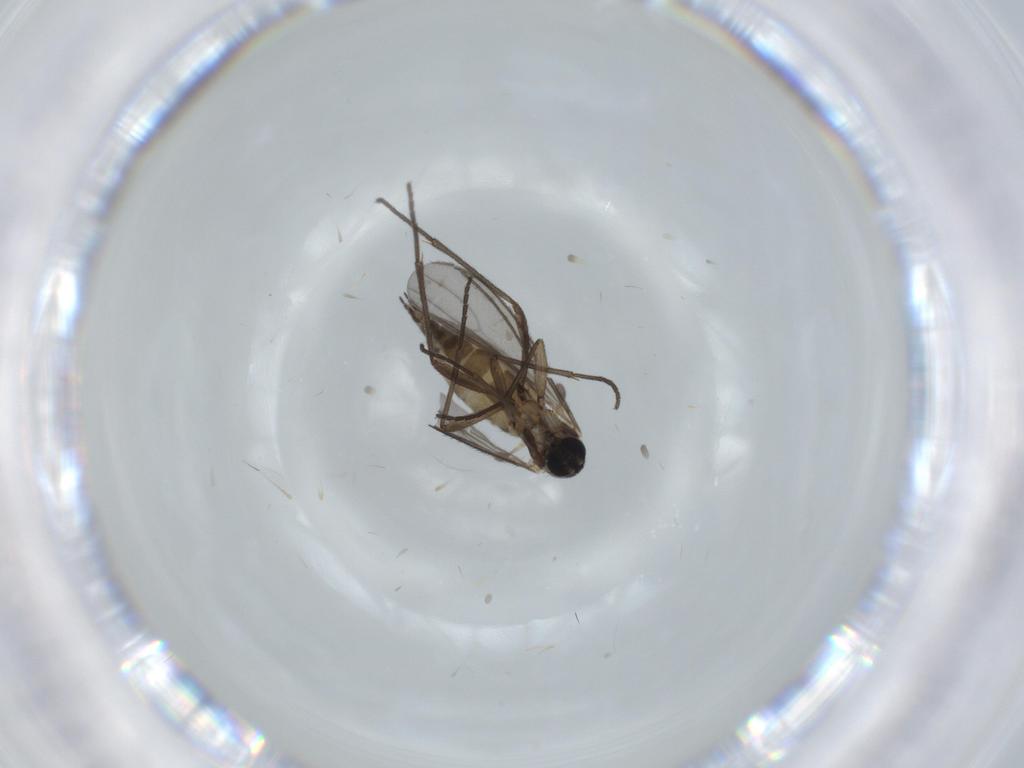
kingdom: Animalia
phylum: Arthropoda
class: Insecta
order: Diptera
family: Sciaridae
